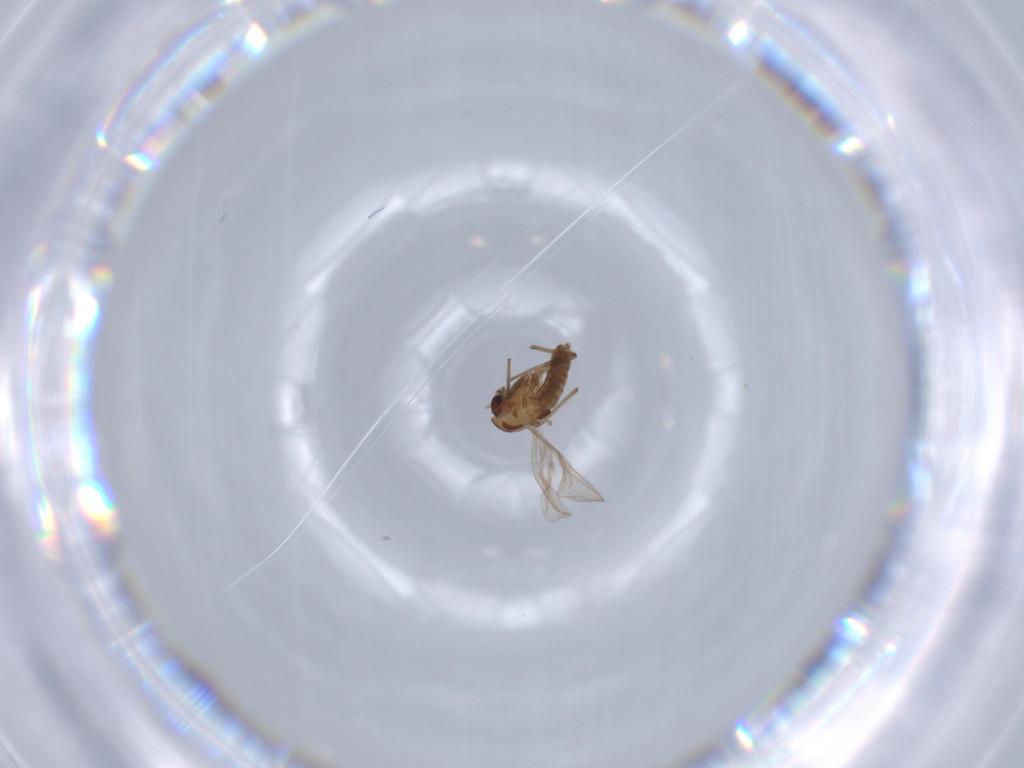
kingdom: Animalia
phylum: Arthropoda
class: Insecta
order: Diptera
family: Chironomidae
